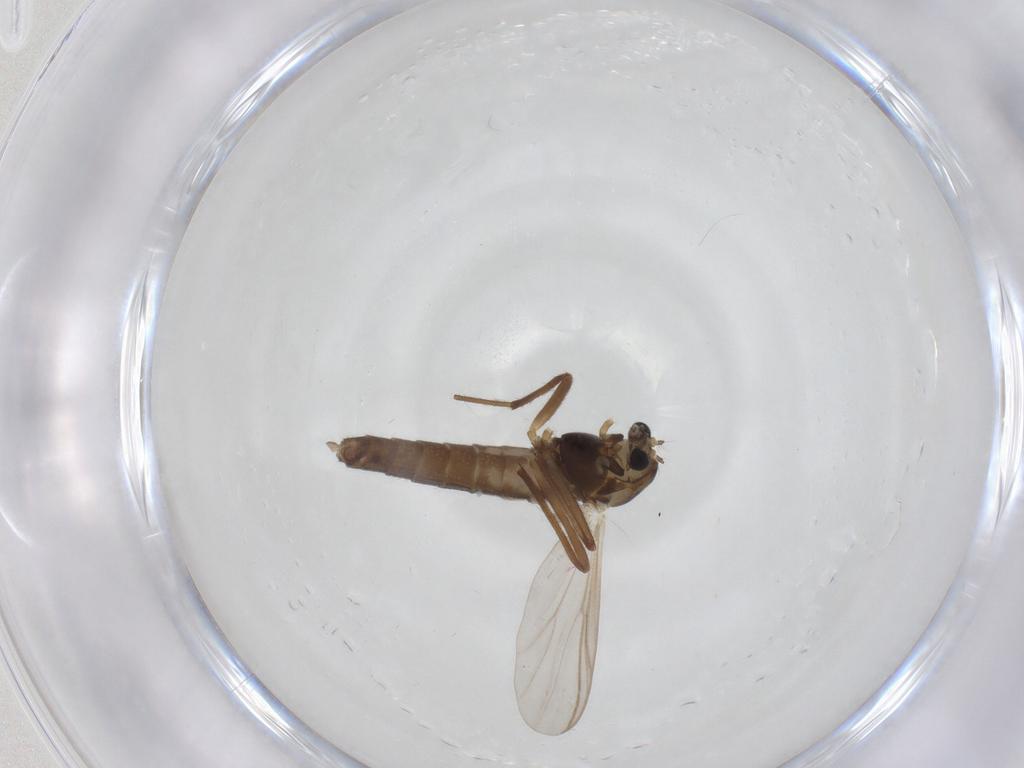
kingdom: Animalia
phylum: Arthropoda
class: Insecta
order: Diptera
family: Chironomidae
